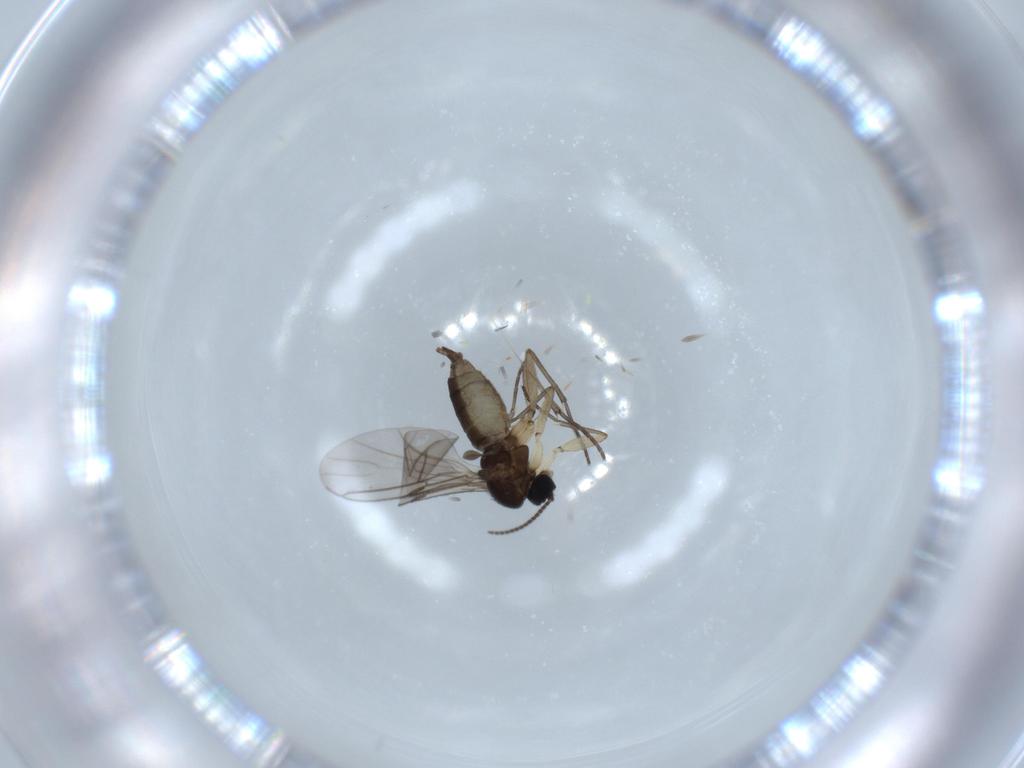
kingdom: Animalia
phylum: Arthropoda
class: Insecta
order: Diptera
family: Sciaridae
